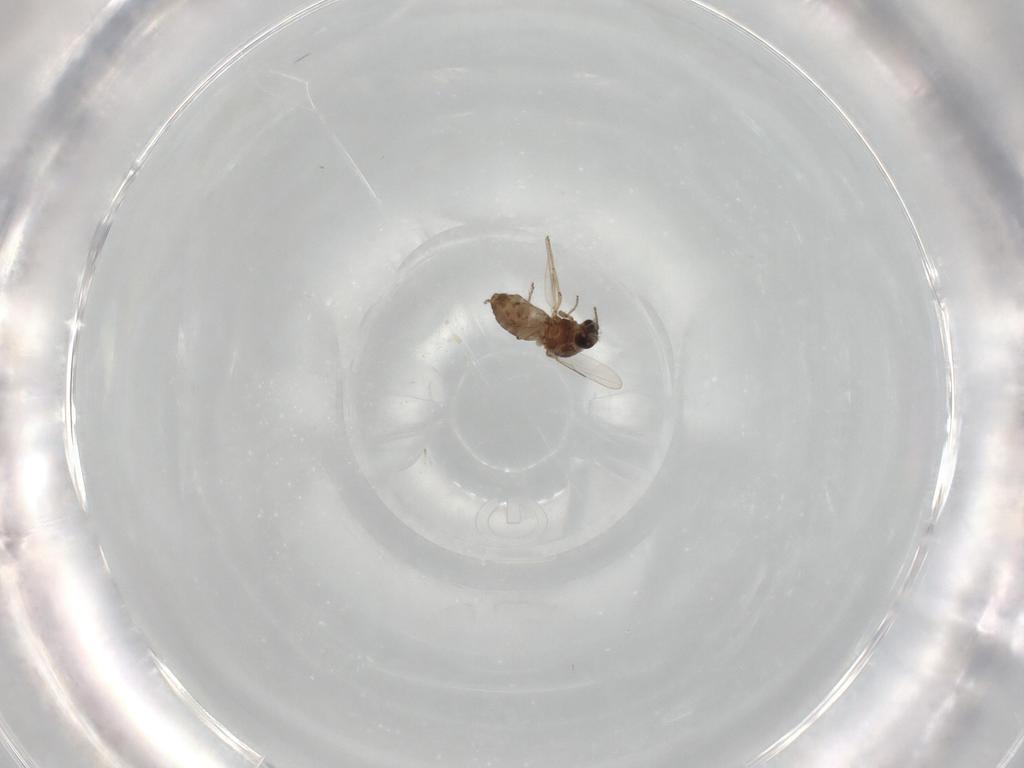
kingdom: Animalia
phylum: Arthropoda
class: Insecta
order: Diptera
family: Ceratopogonidae
